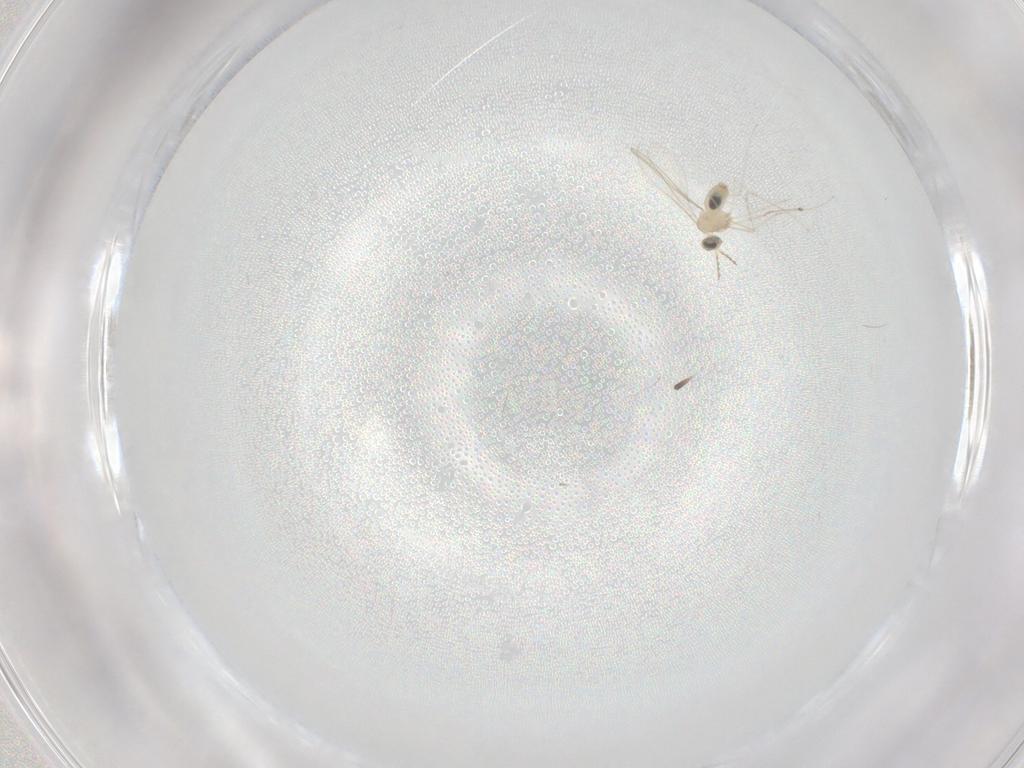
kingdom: Animalia
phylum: Arthropoda
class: Insecta
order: Diptera
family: Cecidomyiidae
